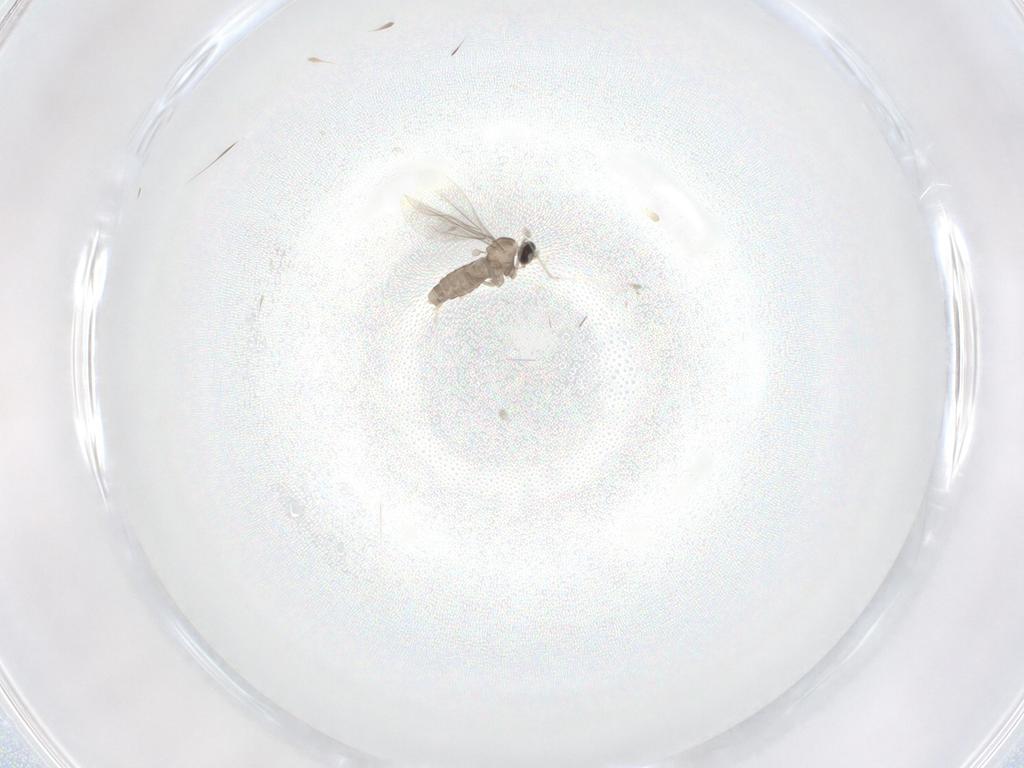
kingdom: Animalia
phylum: Arthropoda
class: Insecta
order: Diptera
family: Cecidomyiidae
